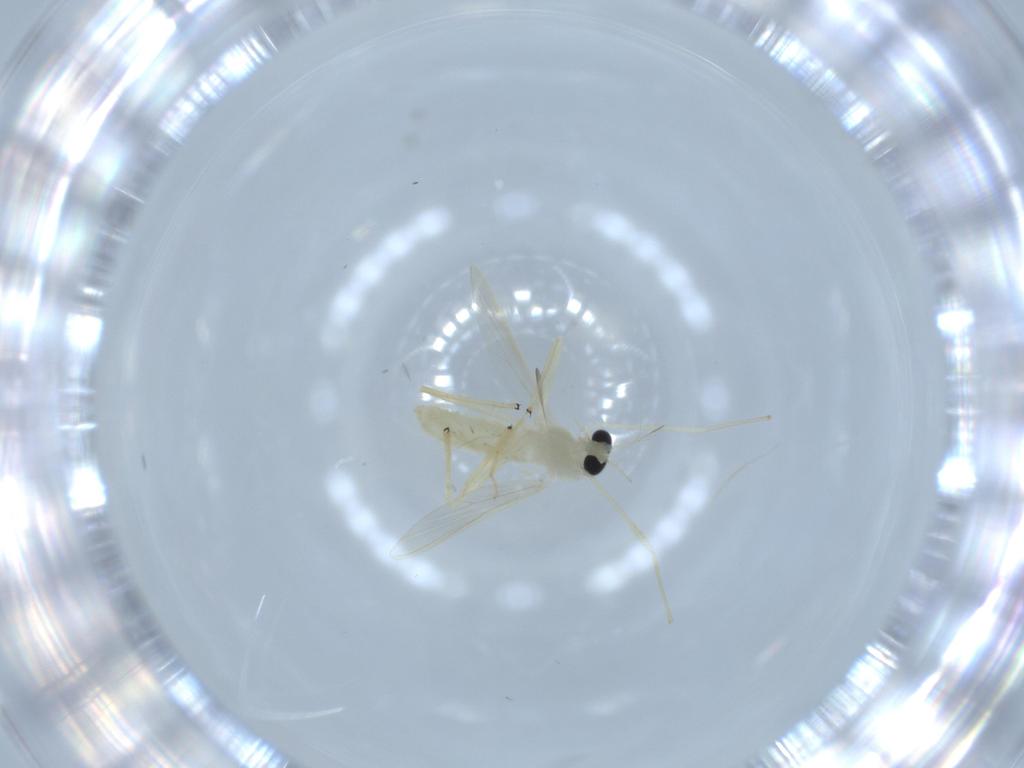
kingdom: Animalia
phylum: Arthropoda
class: Insecta
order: Diptera
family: Chironomidae
